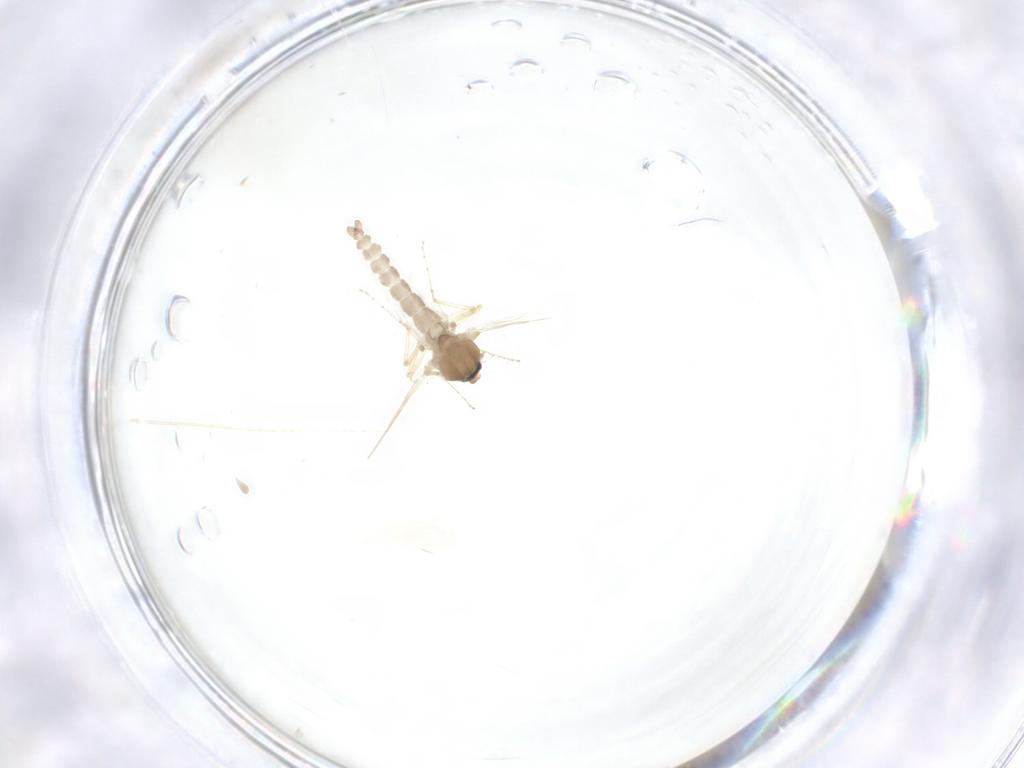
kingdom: Animalia
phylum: Arthropoda
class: Insecta
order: Diptera
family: Ceratopogonidae
